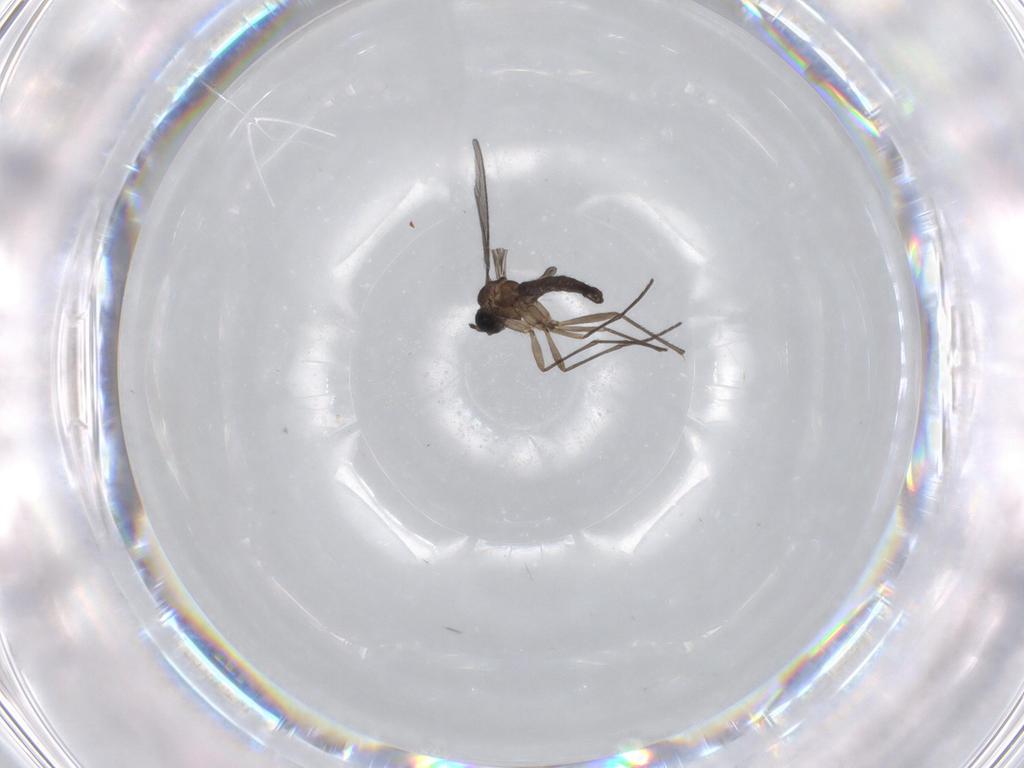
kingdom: Animalia
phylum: Arthropoda
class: Insecta
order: Diptera
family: Sciaridae
